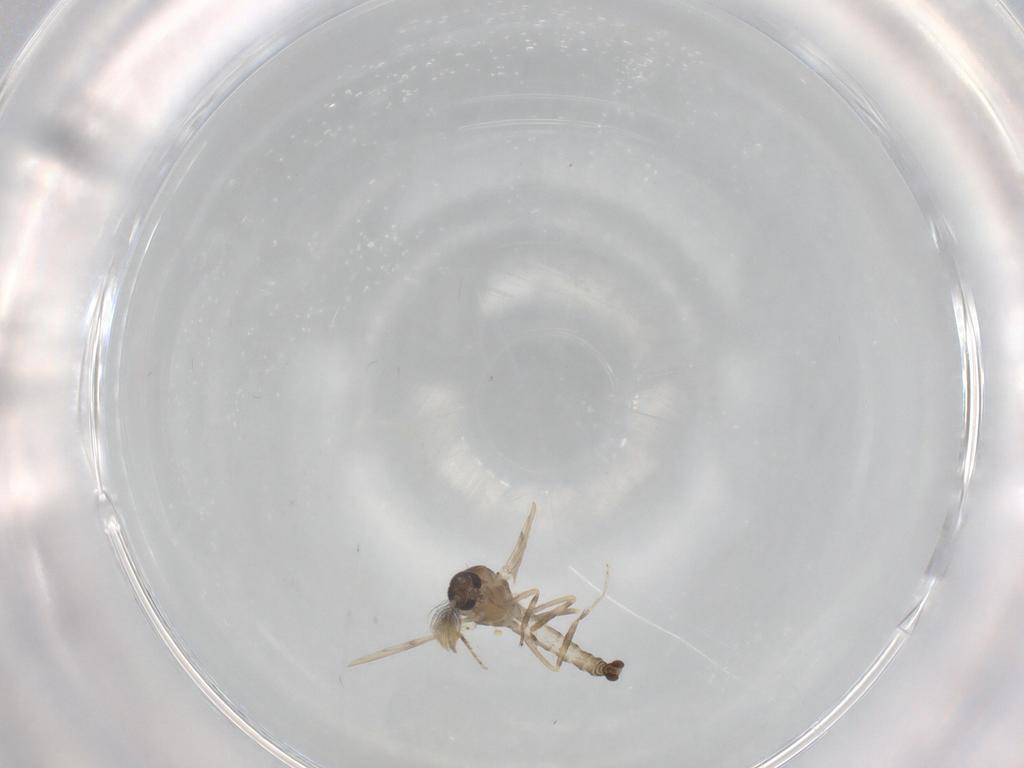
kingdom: Animalia
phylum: Arthropoda
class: Insecta
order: Diptera
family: Ceratopogonidae
